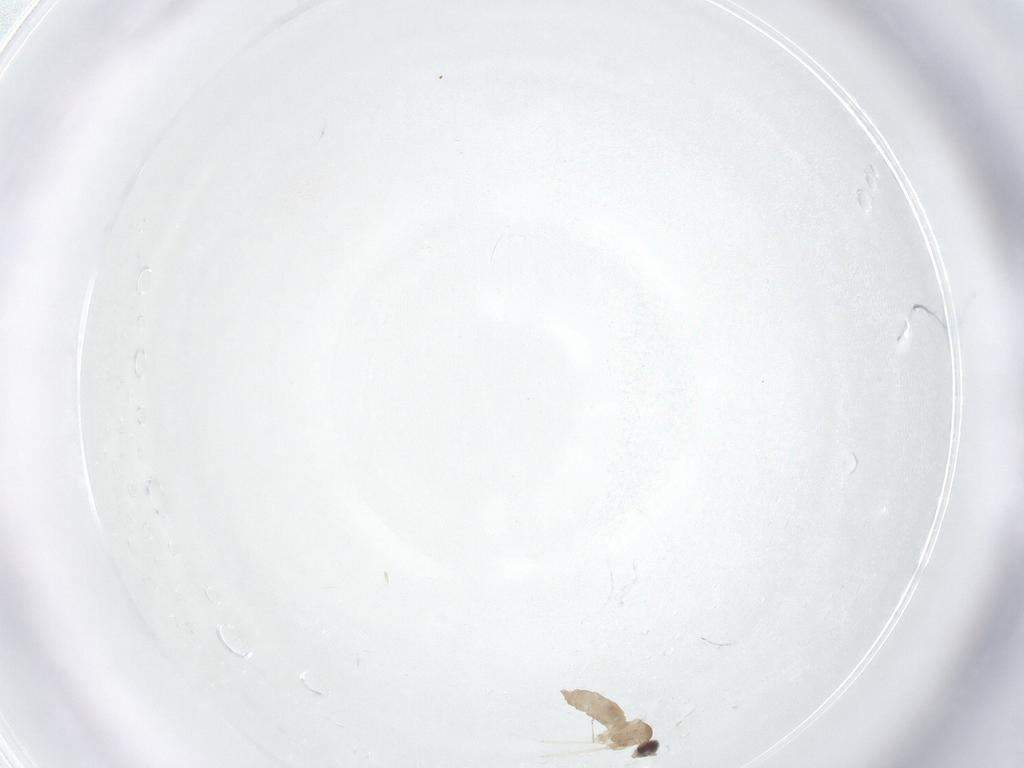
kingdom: Animalia
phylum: Arthropoda
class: Insecta
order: Diptera
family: Cecidomyiidae
